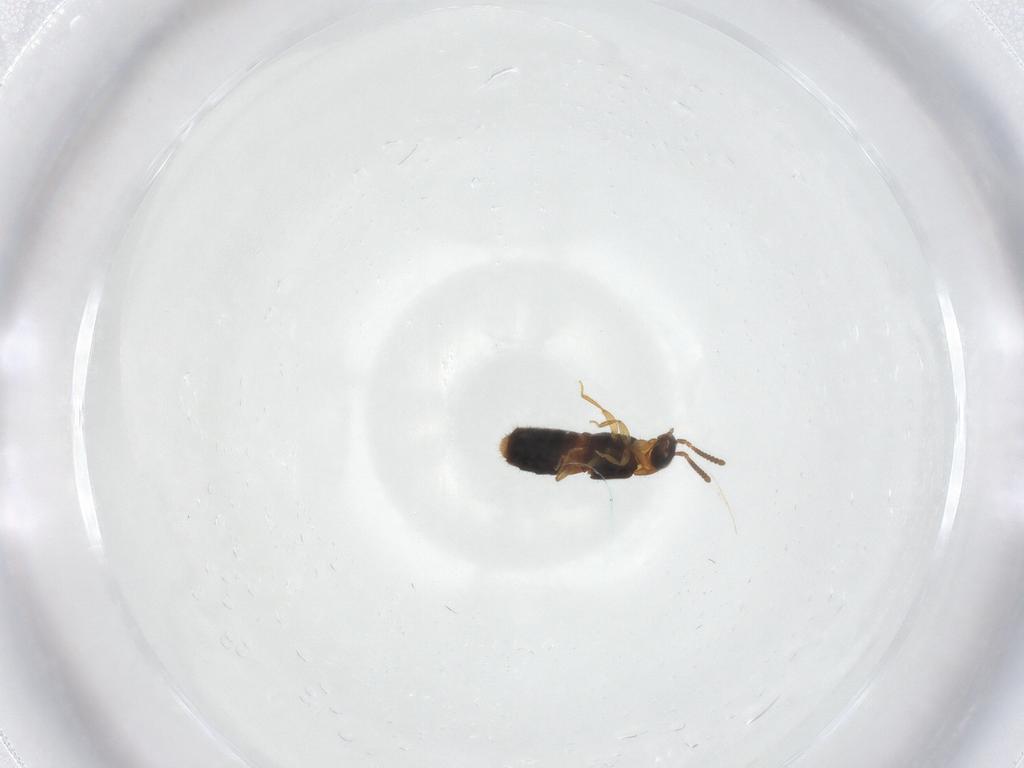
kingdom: Animalia
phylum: Arthropoda
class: Insecta
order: Coleoptera
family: Staphylinidae
